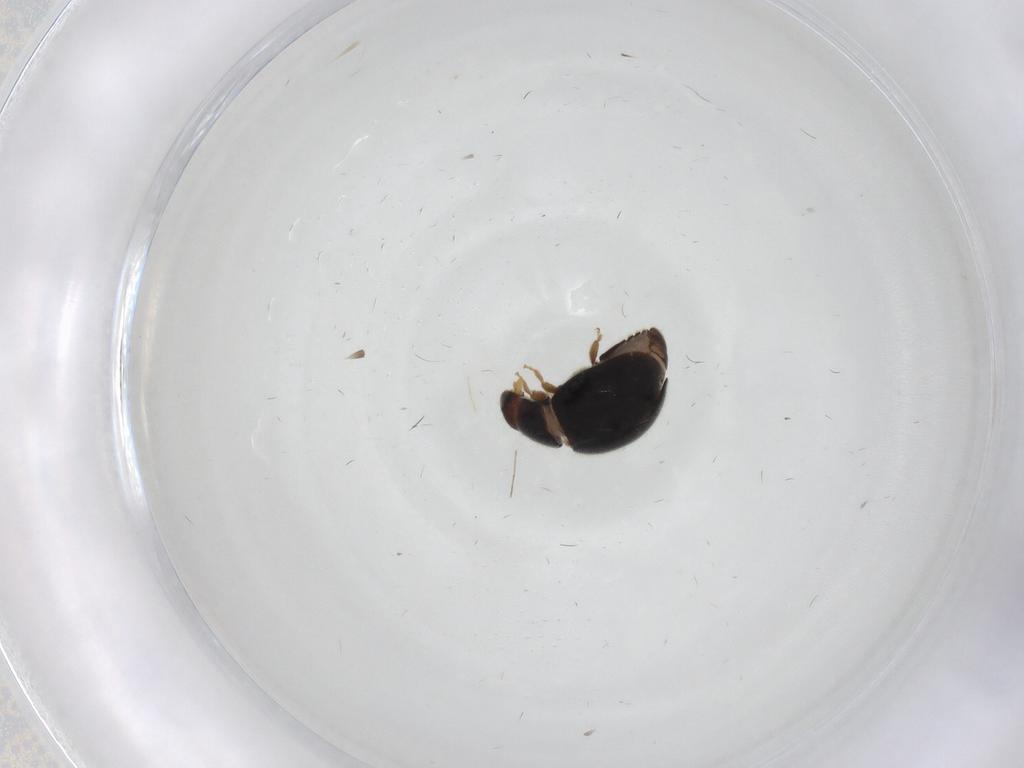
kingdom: Animalia
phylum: Arthropoda
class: Insecta
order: Coleoptera
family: Coccinellidae
